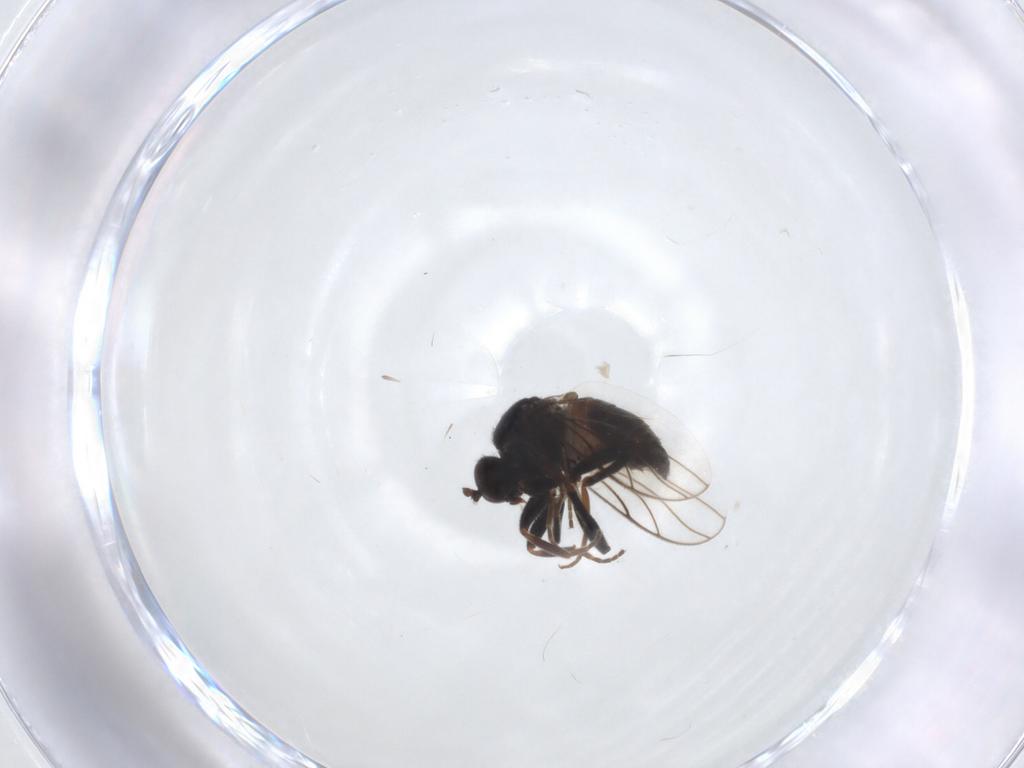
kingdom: Animalia
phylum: Arthropoda
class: Insecta
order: Diptera
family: Hybotidae
